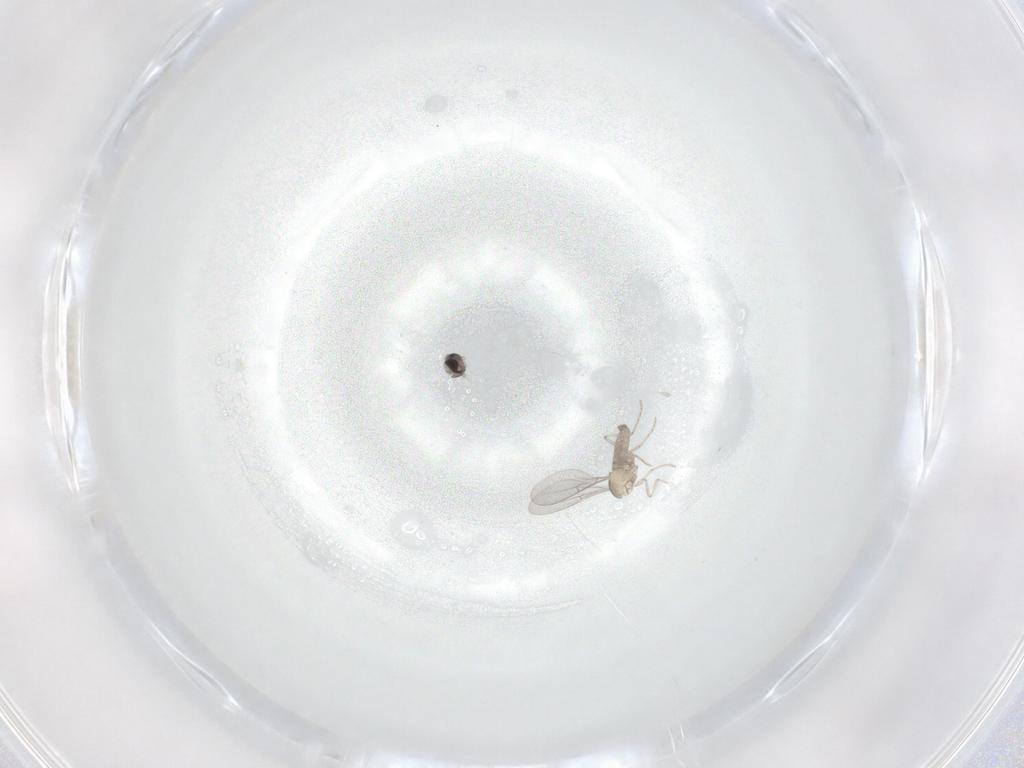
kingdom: Animalia
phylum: Arthropoda
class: Insecta
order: Diptera
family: Cecidomyiidae
